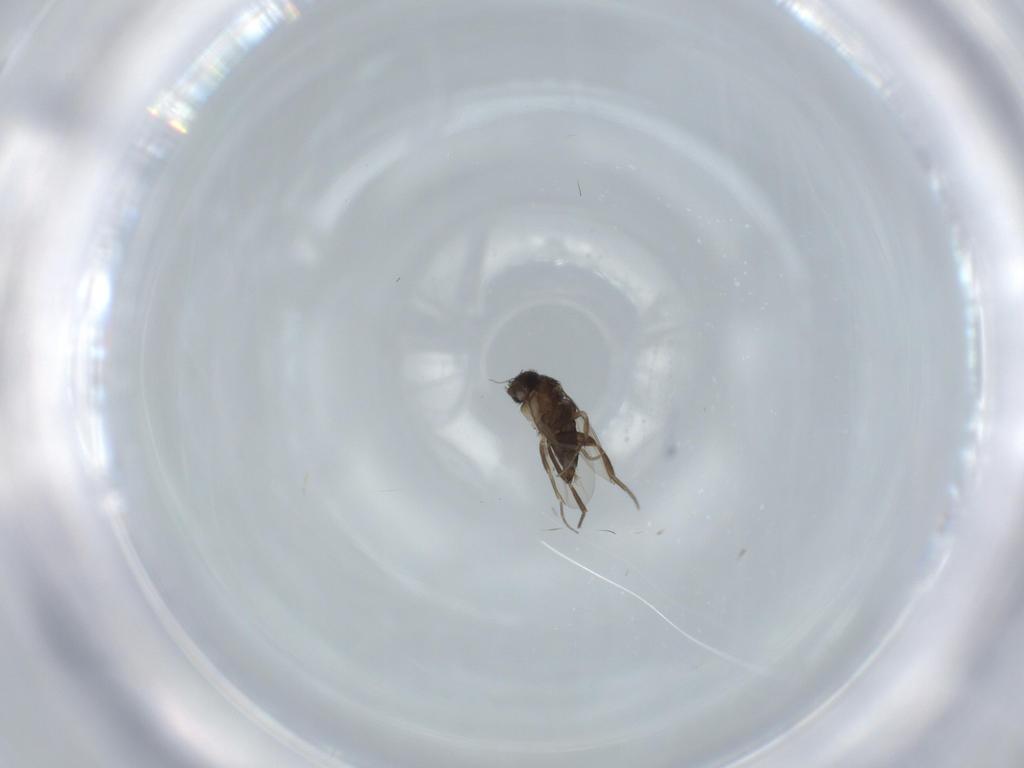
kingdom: Animalia
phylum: Arthropoda
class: Insecta
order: Diptera
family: Phoridae
